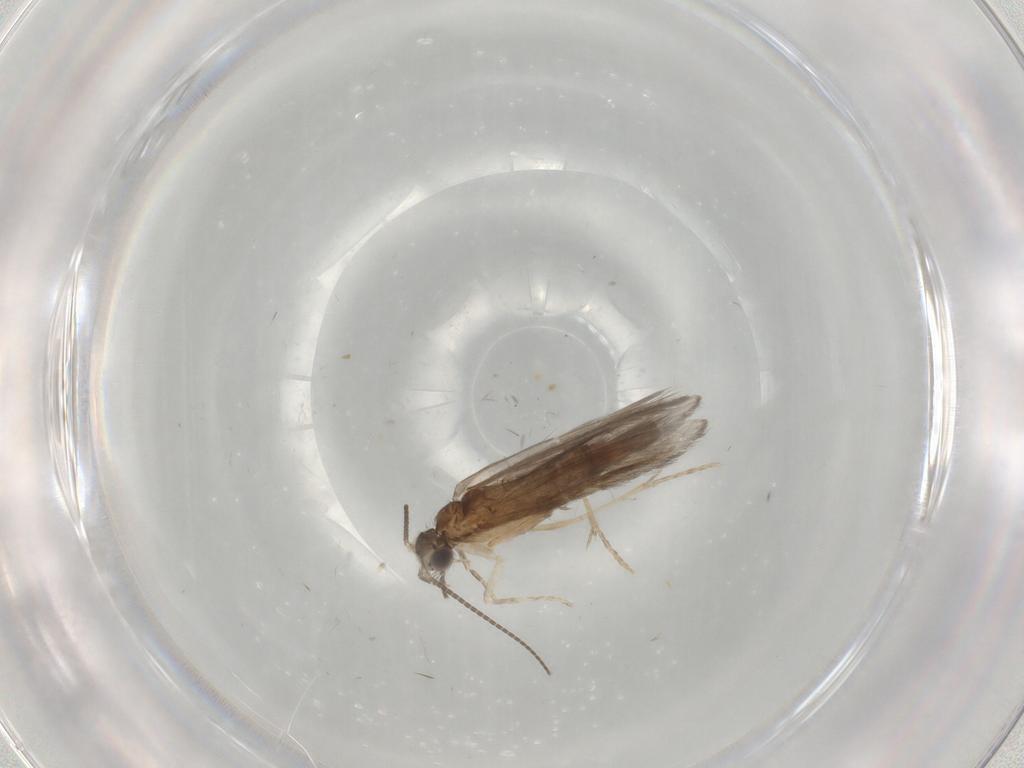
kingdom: Animalia
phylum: Arthropoda
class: Insecta
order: Trichoptera
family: Helicopsychidae
